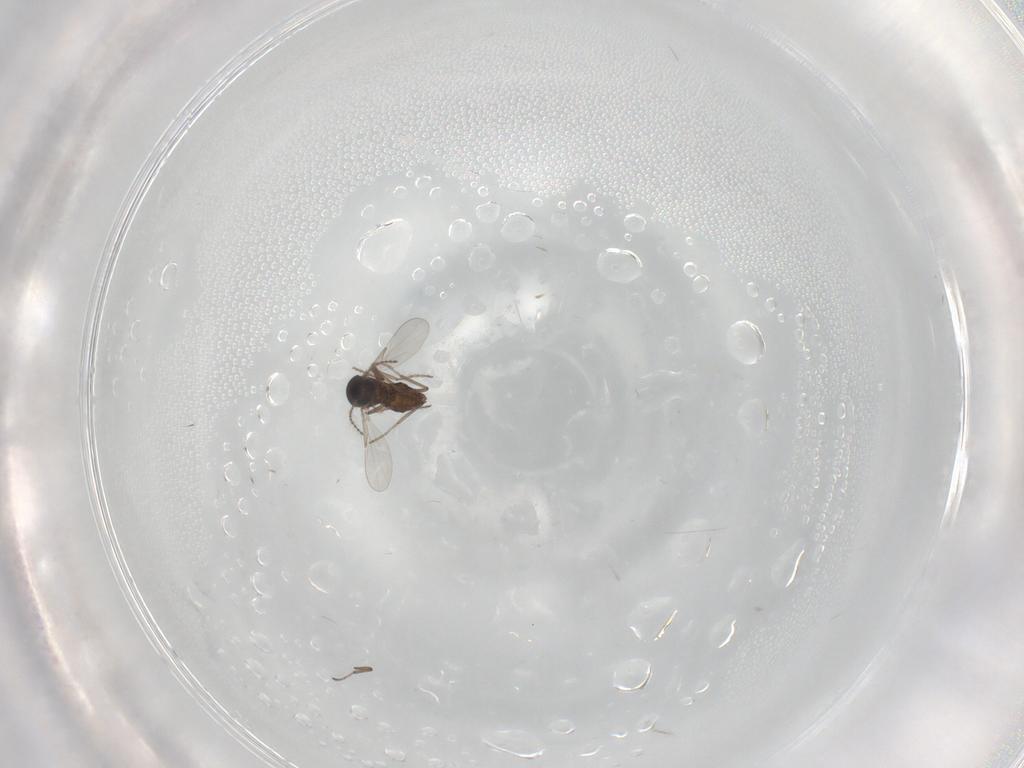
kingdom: Animalia
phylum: Arthropoda
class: Insecta
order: Diptera
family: Ceratopogonidae
